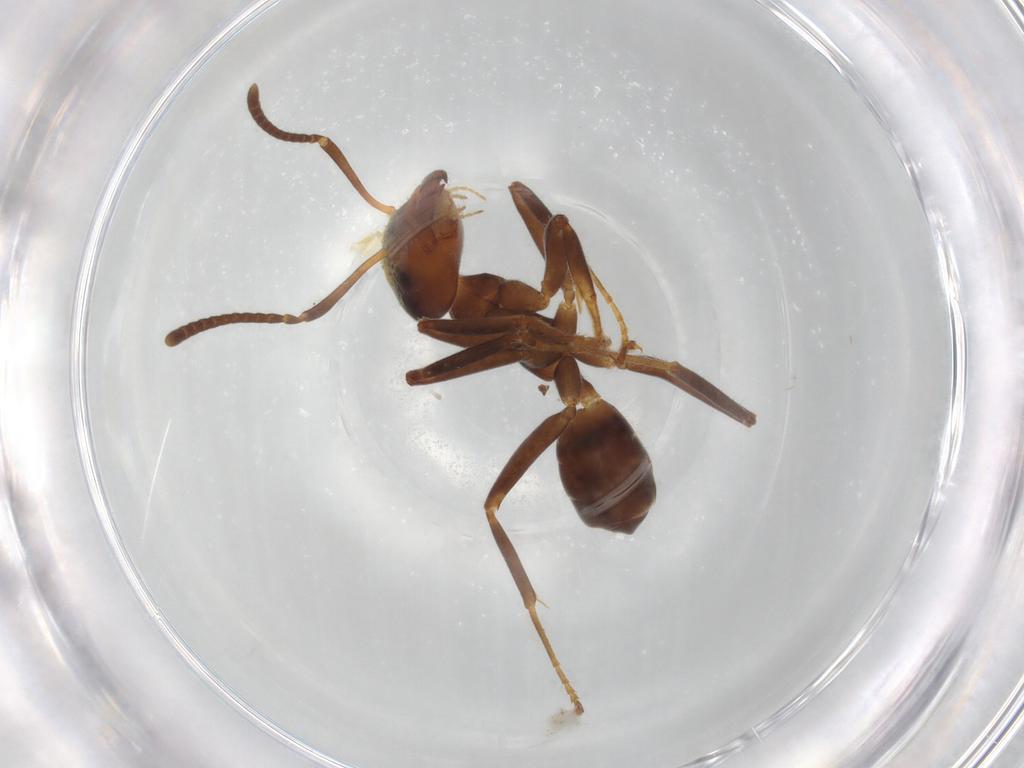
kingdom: Animalia
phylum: Arthropoda
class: Insecta
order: Hymenoptera
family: Formicidae
